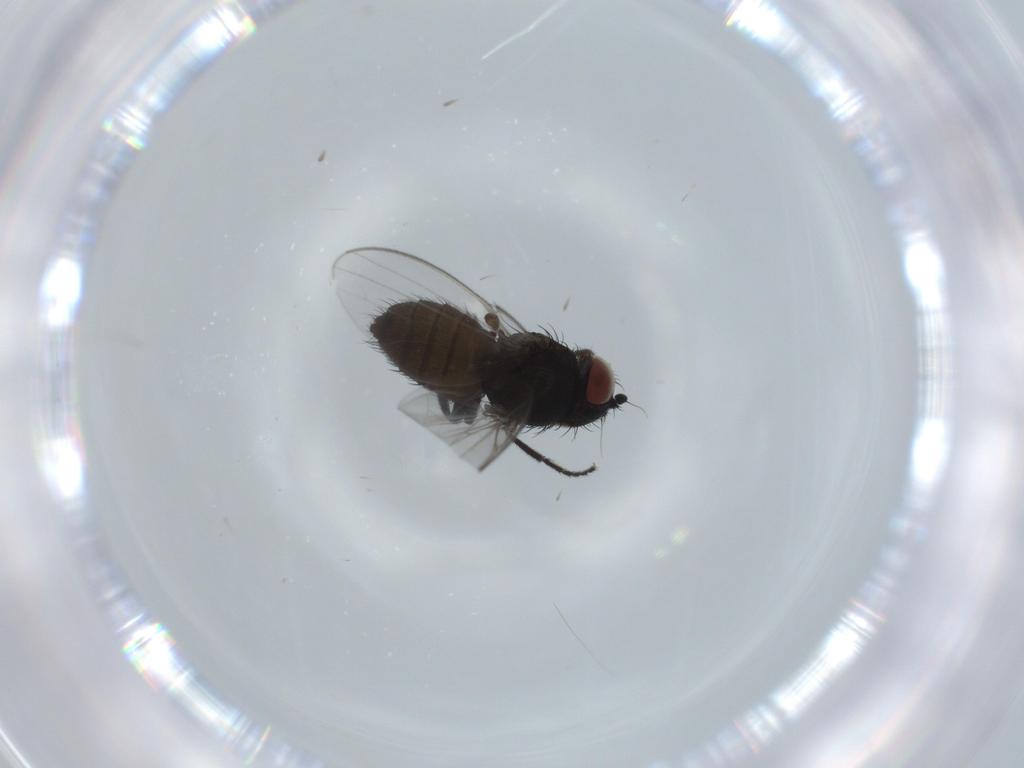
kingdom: Animalia
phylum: Arthropoda
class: Insecta
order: Diptera
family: Milichiidae
